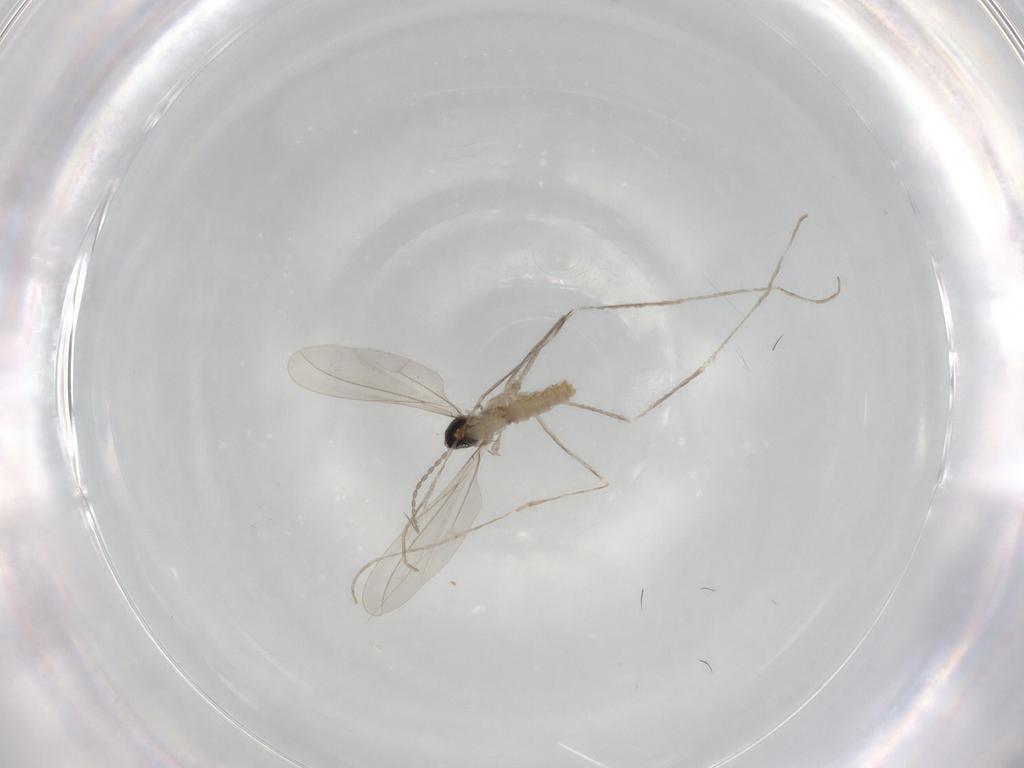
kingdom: Animalia
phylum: Arthropoda
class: Insecta
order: Diptera
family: Cecidomyiidae
